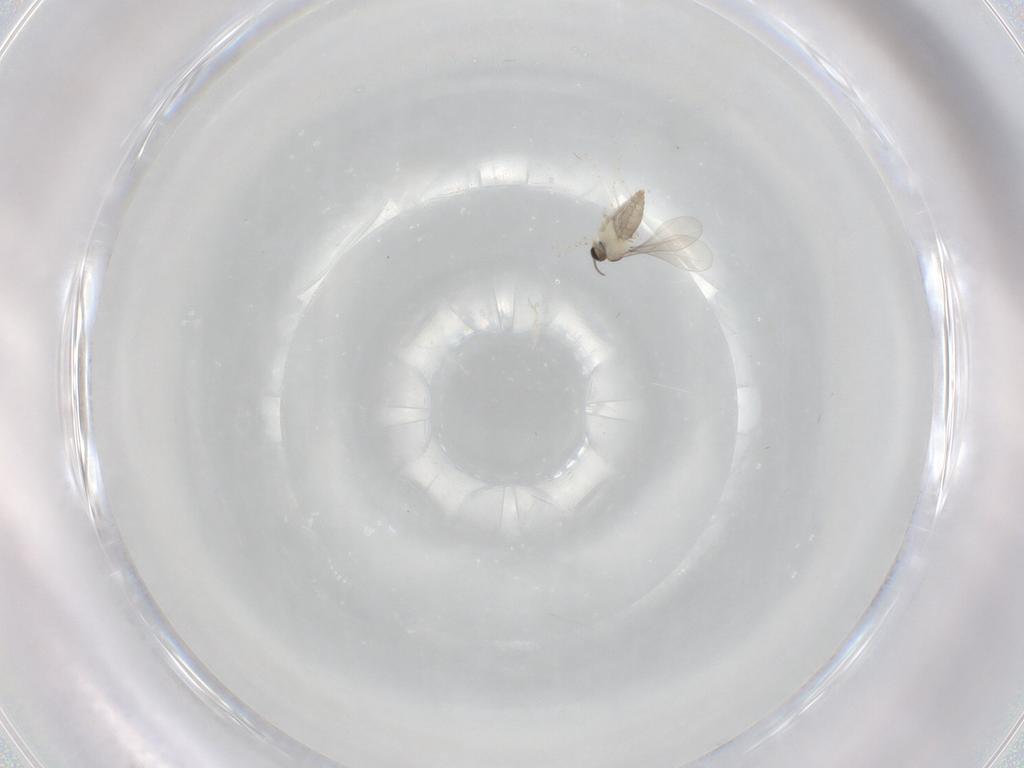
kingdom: Animalia
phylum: Arthropoda
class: Insecta
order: Diptera
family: Cecidomyiidae
